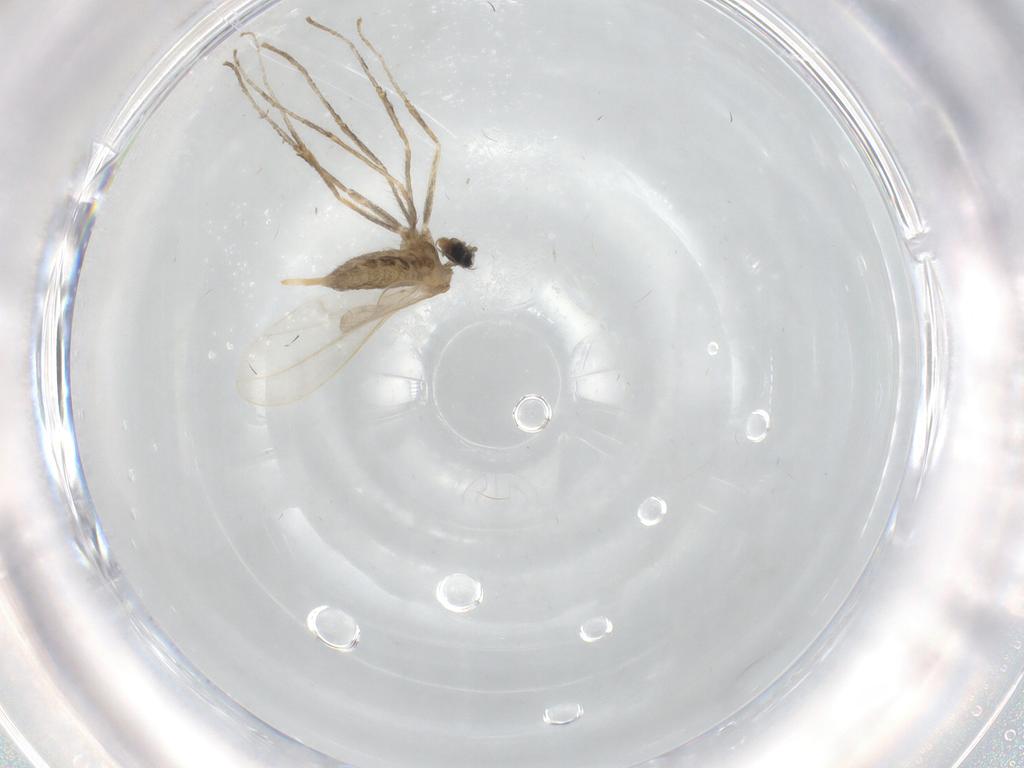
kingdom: Animalia
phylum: Arthropoda
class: Insecta
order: Diptera
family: Cecidomyiidae
